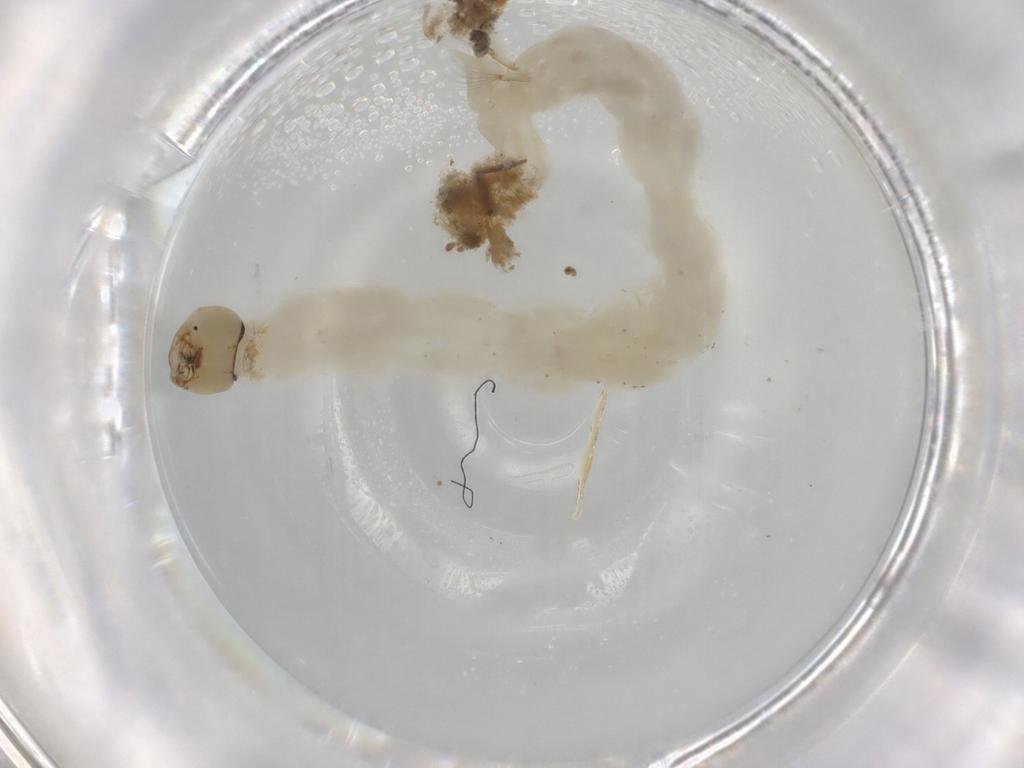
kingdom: Animalia
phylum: Arthropoda
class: Insecta
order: Diptera
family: Chironomidae
